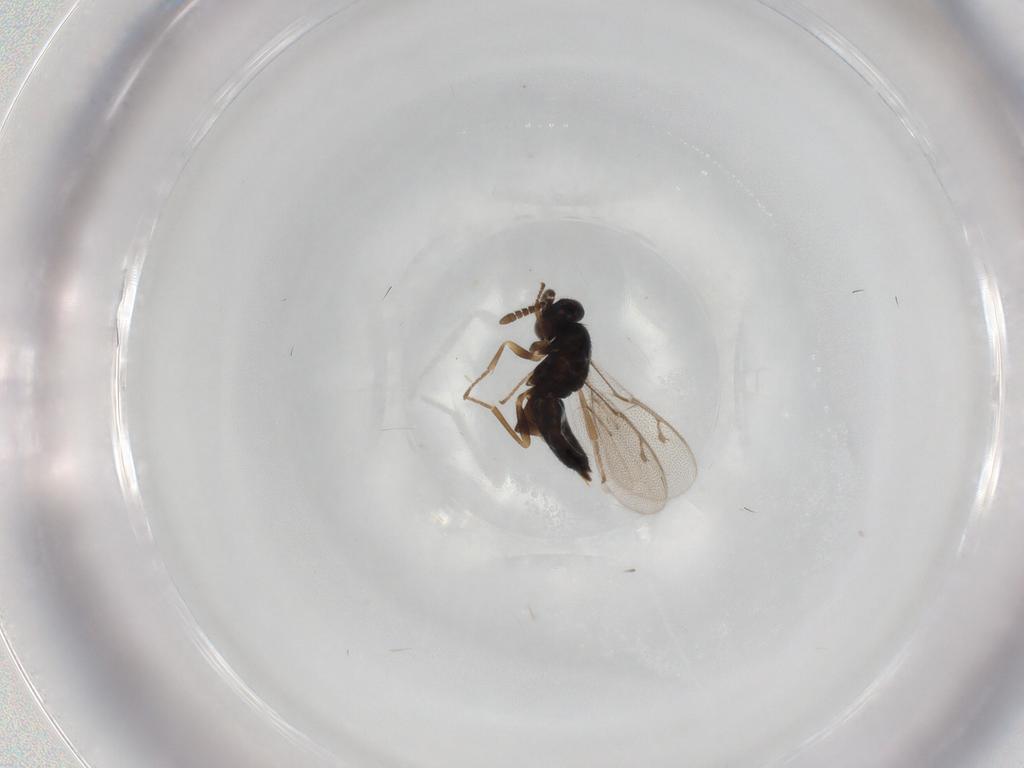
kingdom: Animalia
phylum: Arthropoda
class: Insecta
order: Hymenoptera
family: Pirenidae
